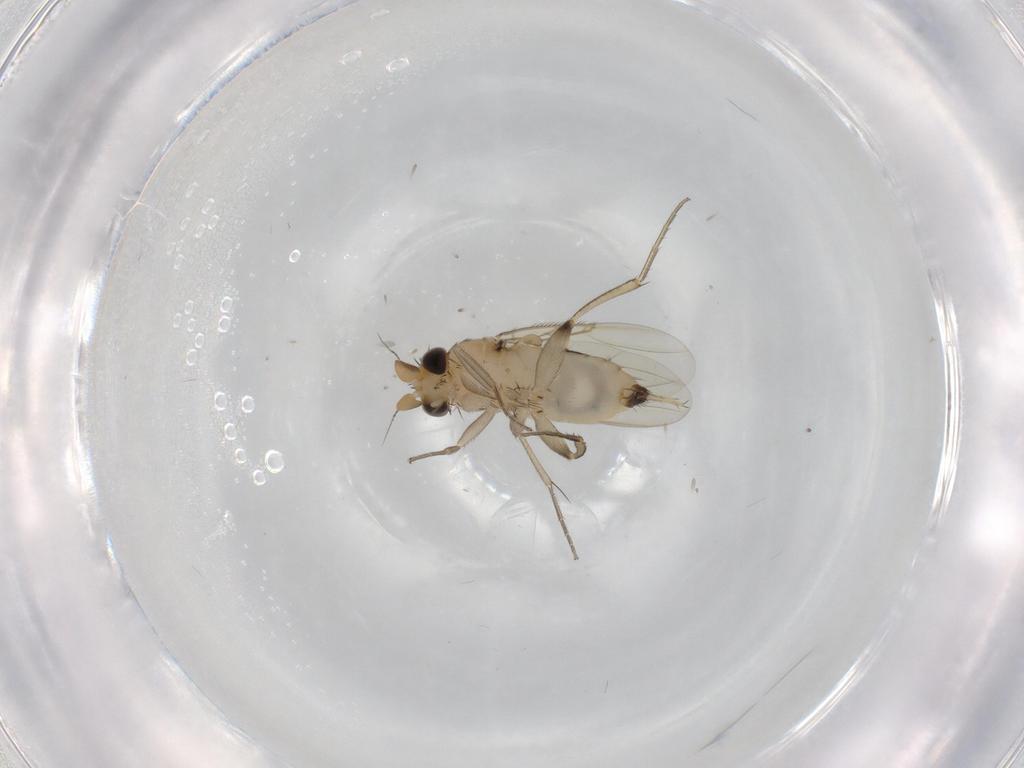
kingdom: Animalia
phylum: Arthropoda
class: Insecta
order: Diptera
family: Phoridae
